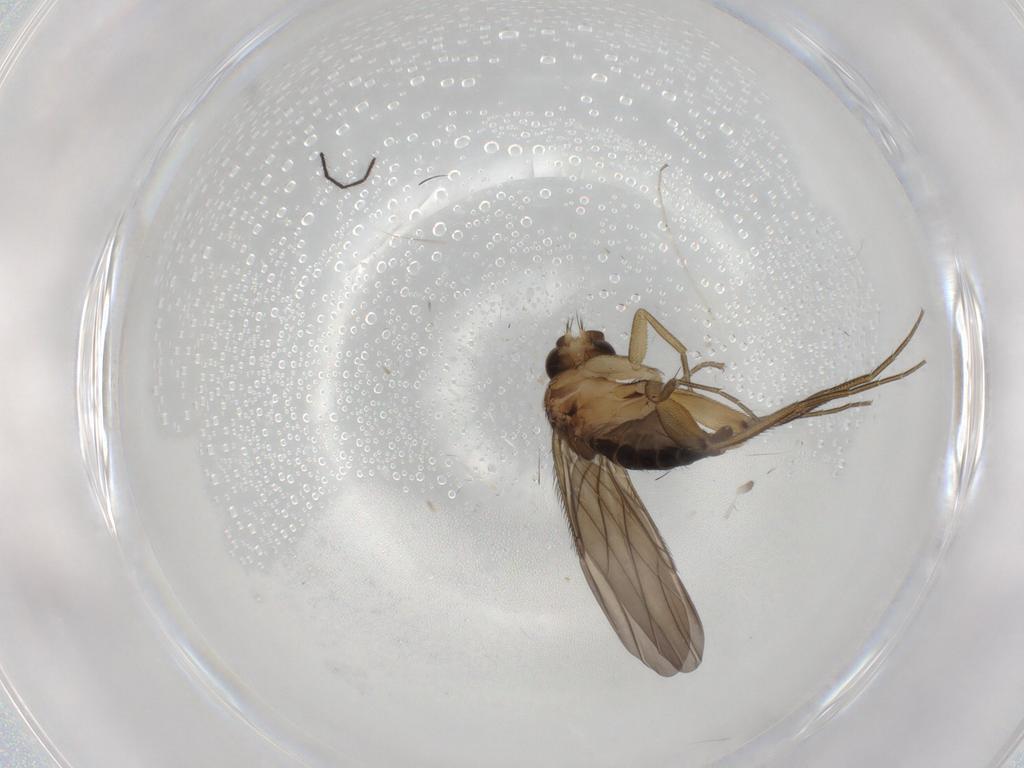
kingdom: Animalia
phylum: Arthropoda
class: Insecta
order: Diptera
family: Phoridae
